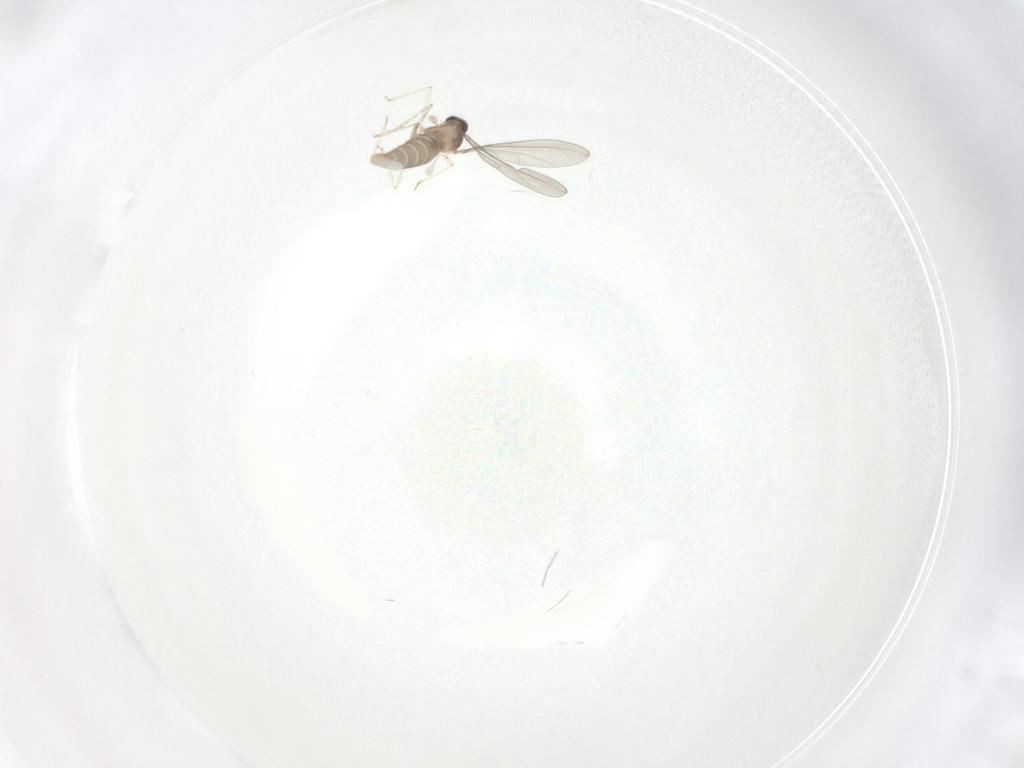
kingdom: Animalia
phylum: Arthropoda
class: Insecta
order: Diptera
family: Cecidomyiidae
